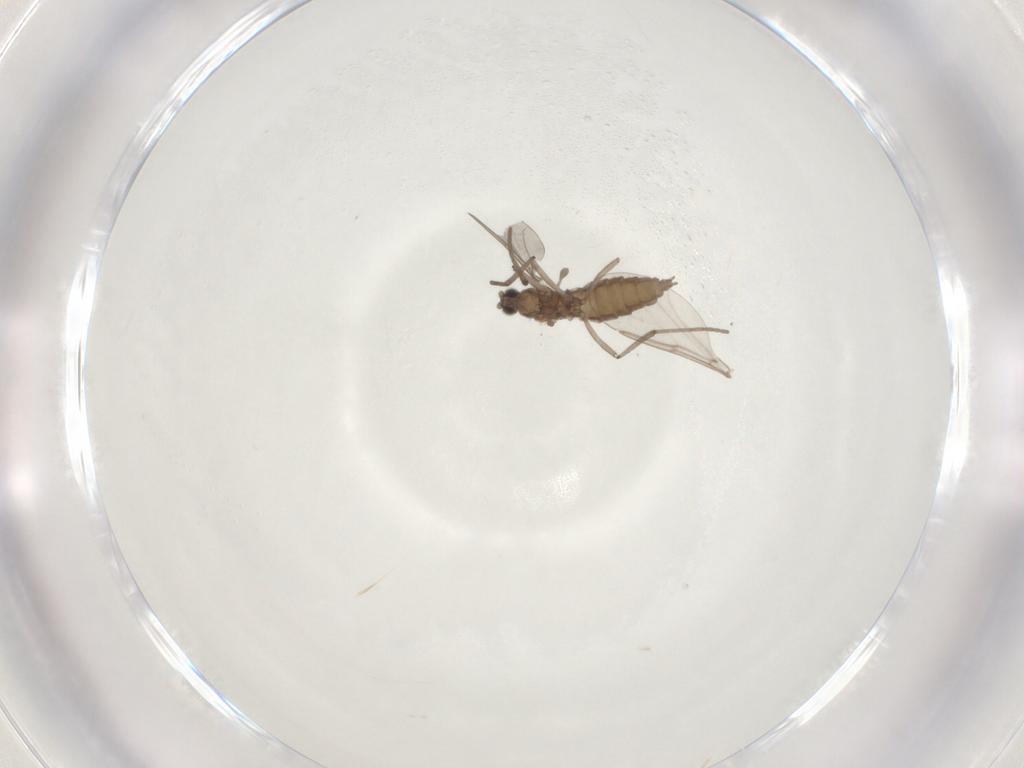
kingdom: Animalia
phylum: Arthropoda
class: Insecta
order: Diptera
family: Cecidomyiidae
